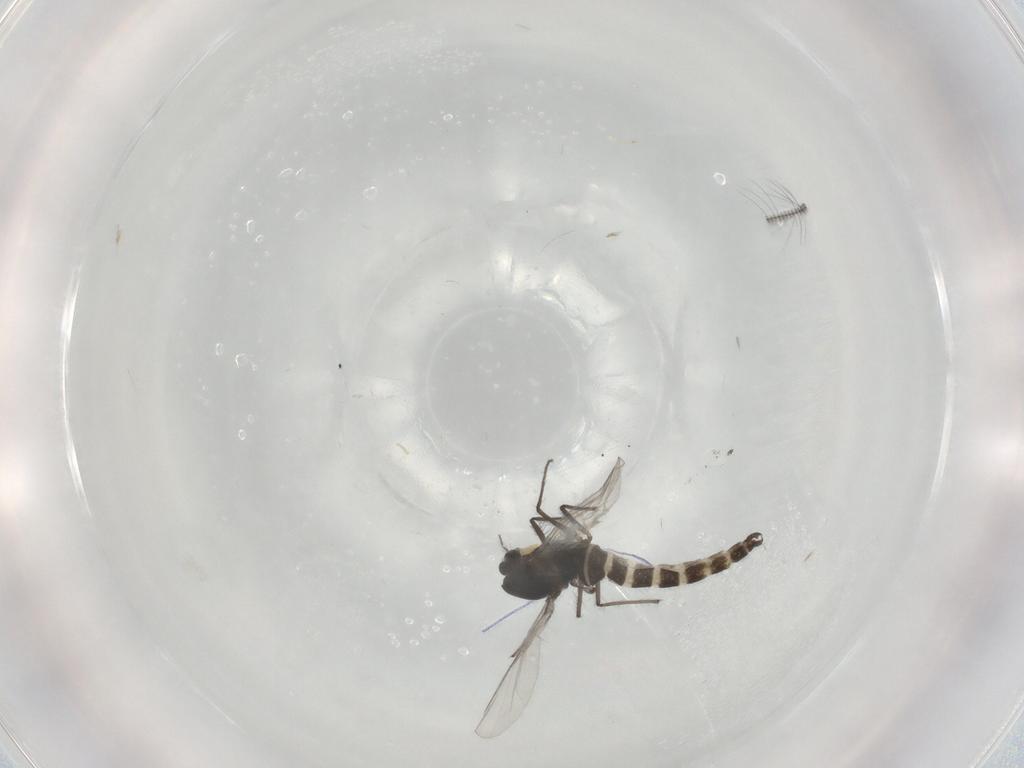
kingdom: Animalia
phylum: Arthropoda
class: Insecta
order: Diptera
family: Chironomidae
